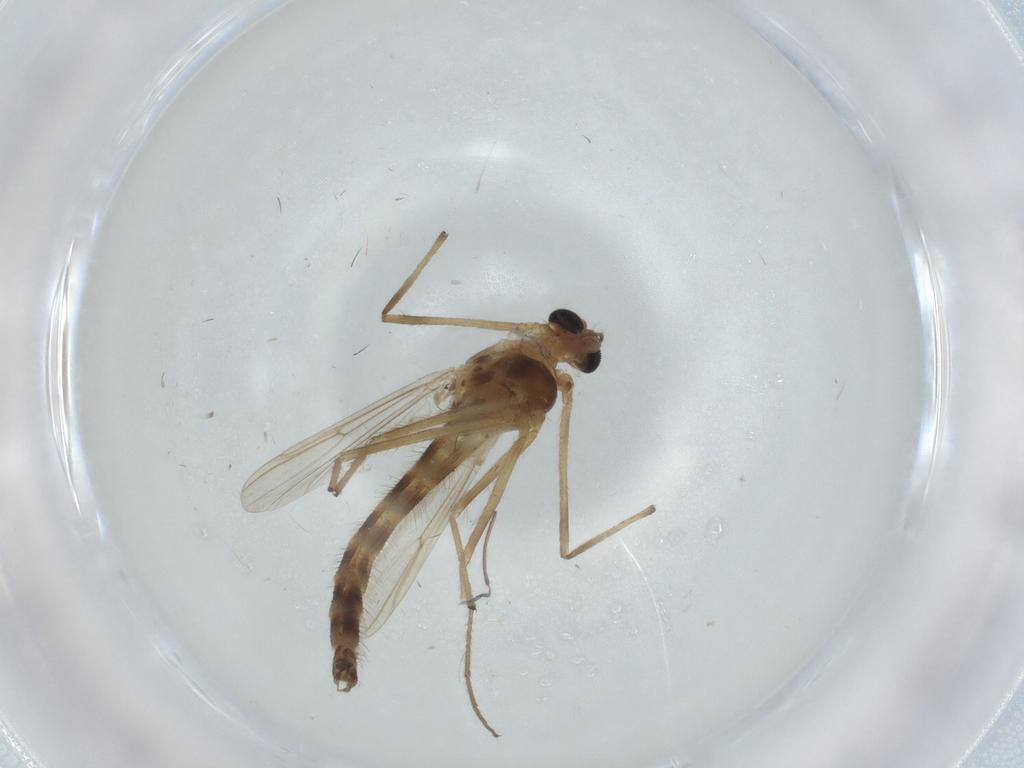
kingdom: Animalia
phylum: Arthropoda
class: Insecta
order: Diptera
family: Chironomidae
